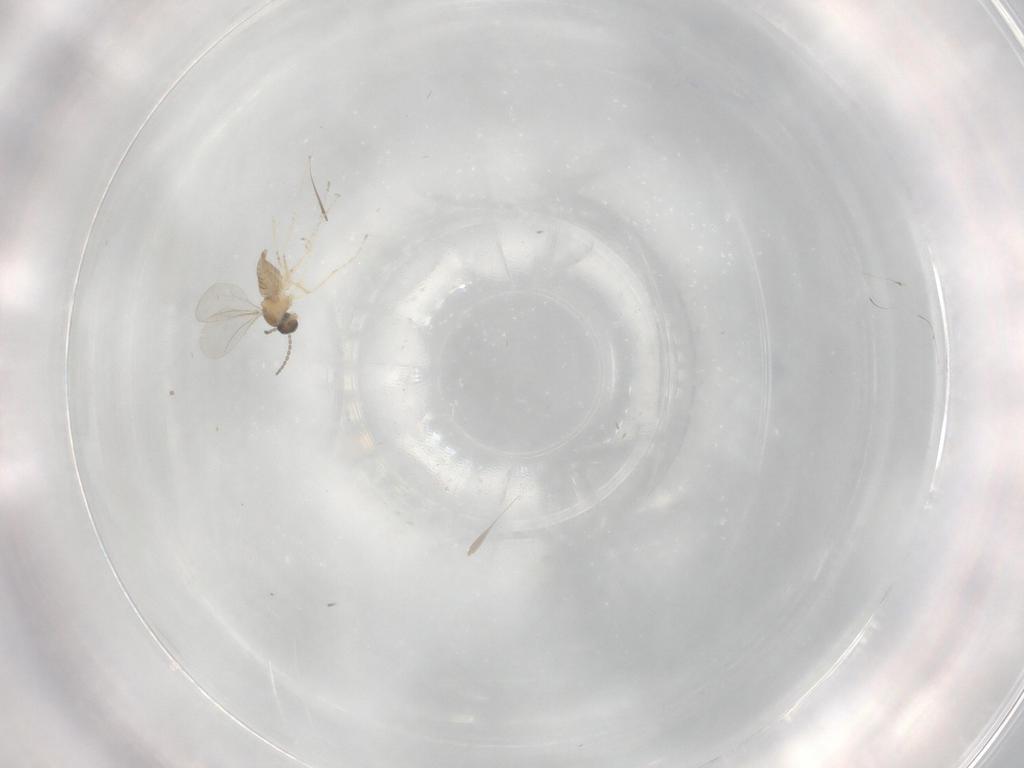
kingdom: Animalia
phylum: Arthropoda
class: Insecta
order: Diptera
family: Cecidomyiidae
